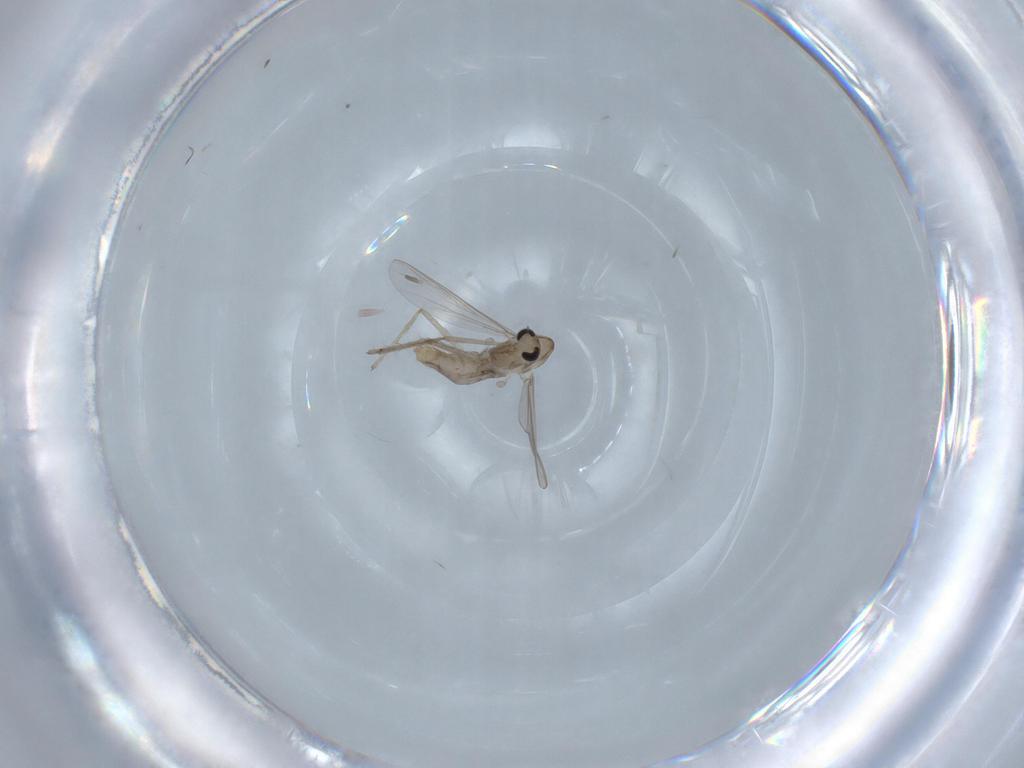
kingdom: Animalia
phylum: Arthropoda
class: Insecta
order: Diptera
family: Chironomidae
